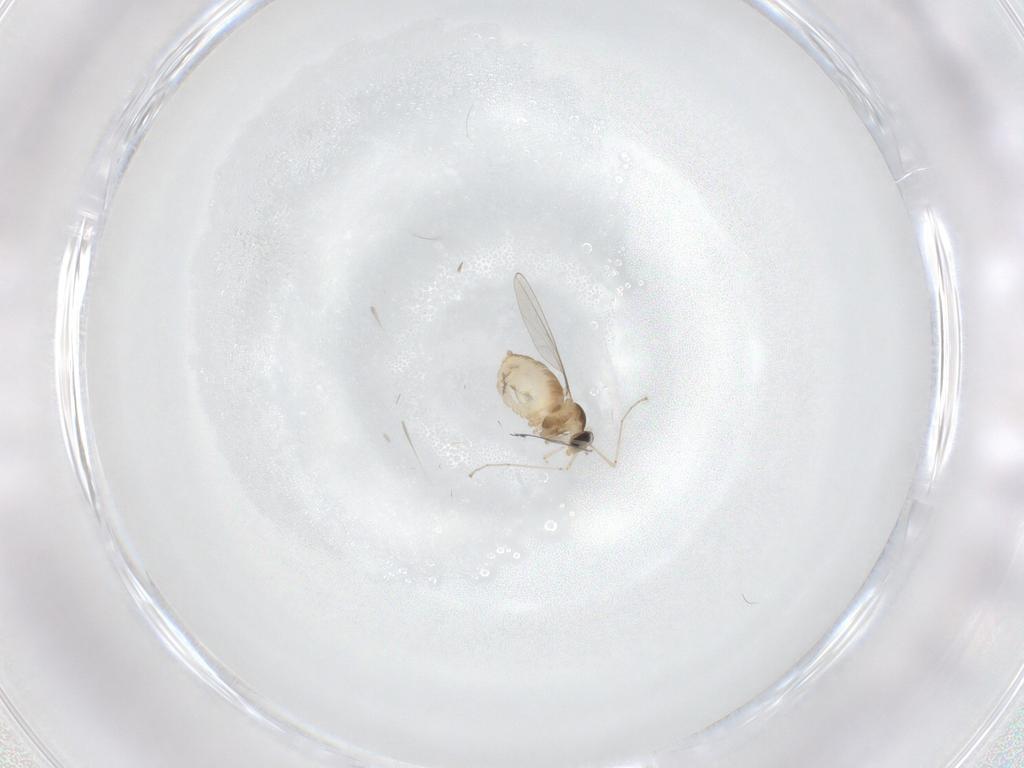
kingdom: Animalia
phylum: Arthropoda
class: Insecta
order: Diptera
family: Cecidomyiidae
